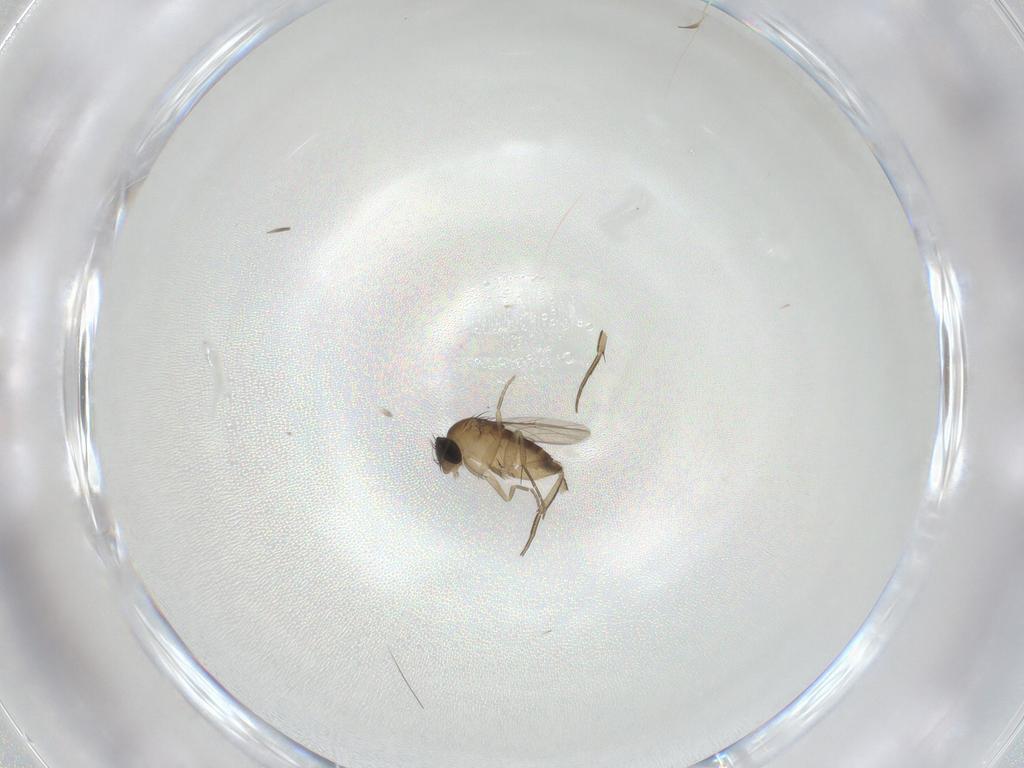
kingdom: Animalia
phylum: Arthropoda
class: Insecta
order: Diptera
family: Phoridae
